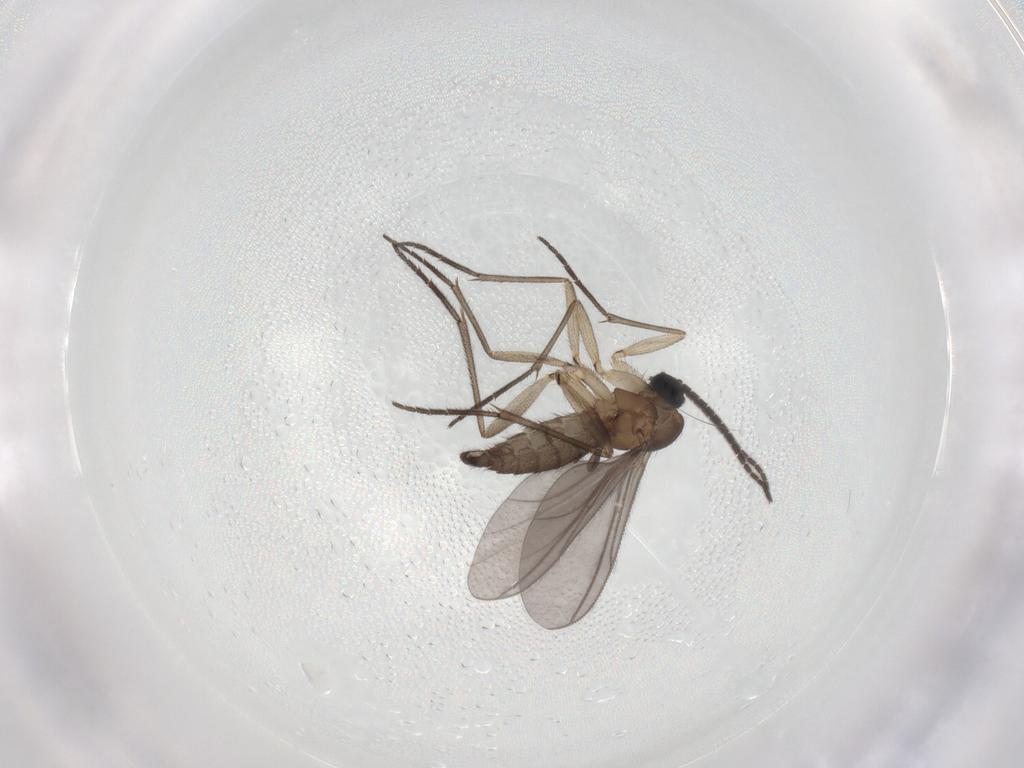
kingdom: Animalia
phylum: Arthropoda
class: Insecta
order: Diptera
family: Sciaridae
